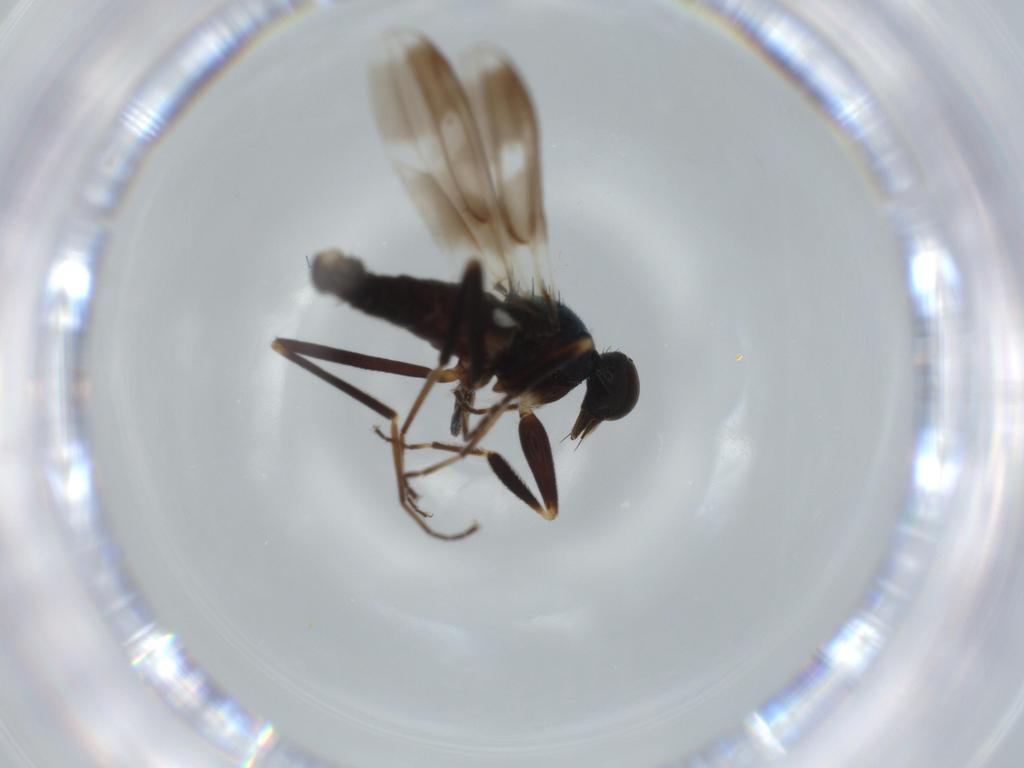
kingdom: Animalia
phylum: Arthropoda
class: Insecta
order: Diptera
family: Hybotidae
